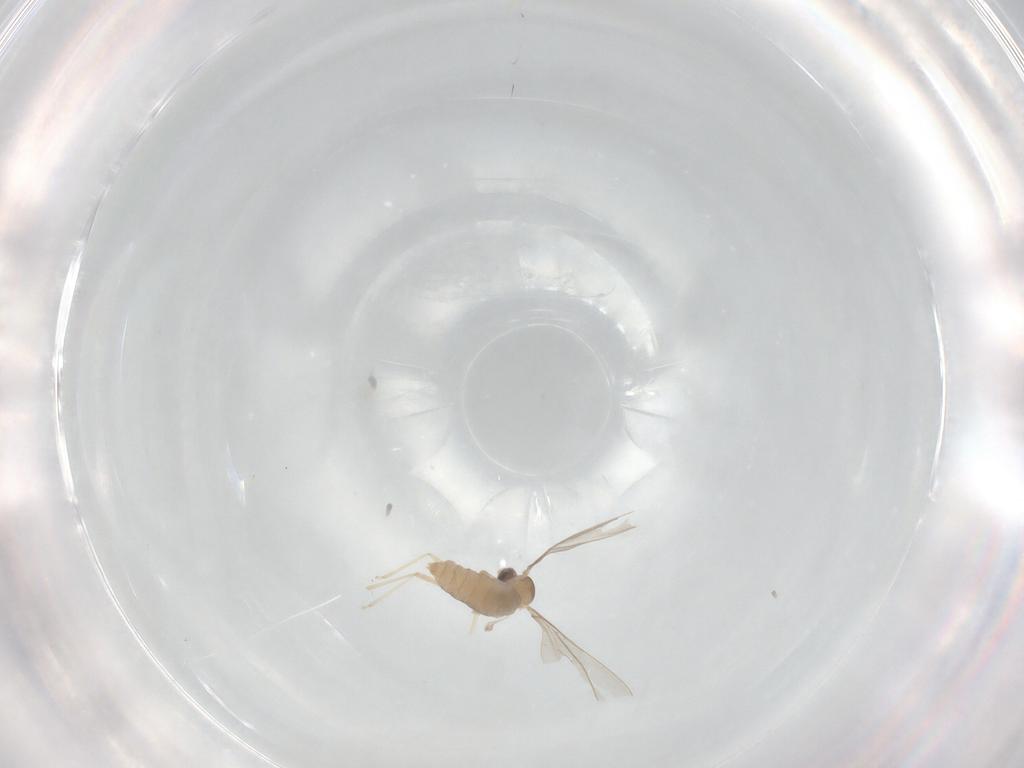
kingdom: Animalia
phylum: Arthropoda
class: Insecta
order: Diptera
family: Cecidomyiidae
